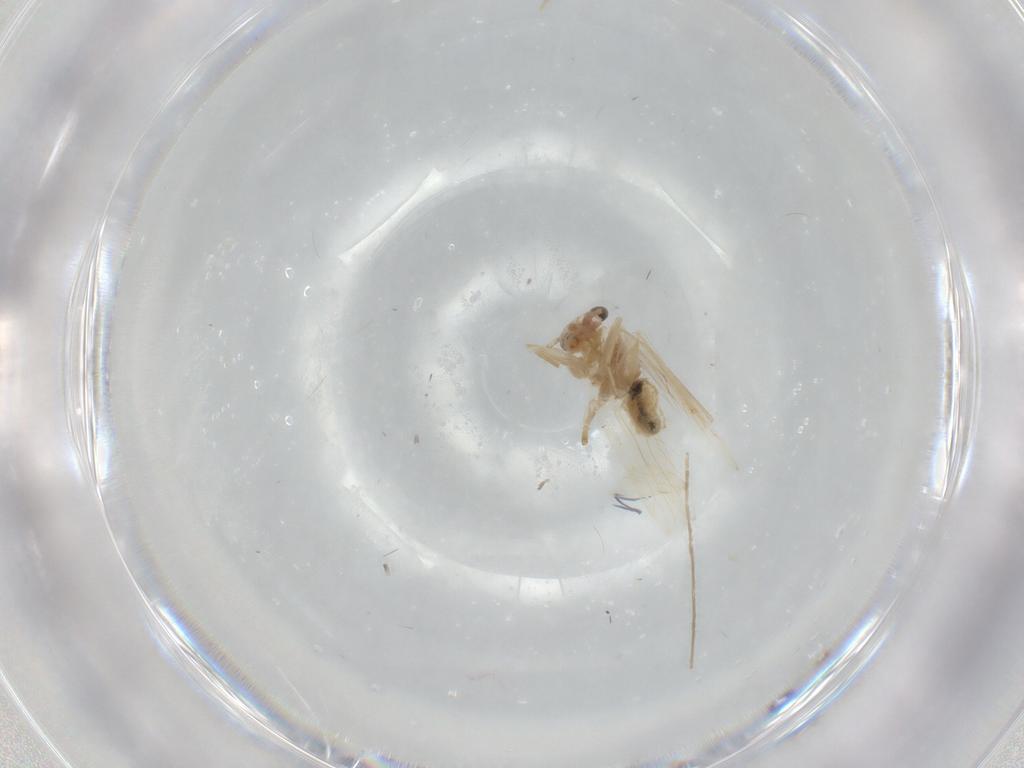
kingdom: Animalia
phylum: Arthropoda
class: Insecta
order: Psocodea
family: Lepidopsocidae
